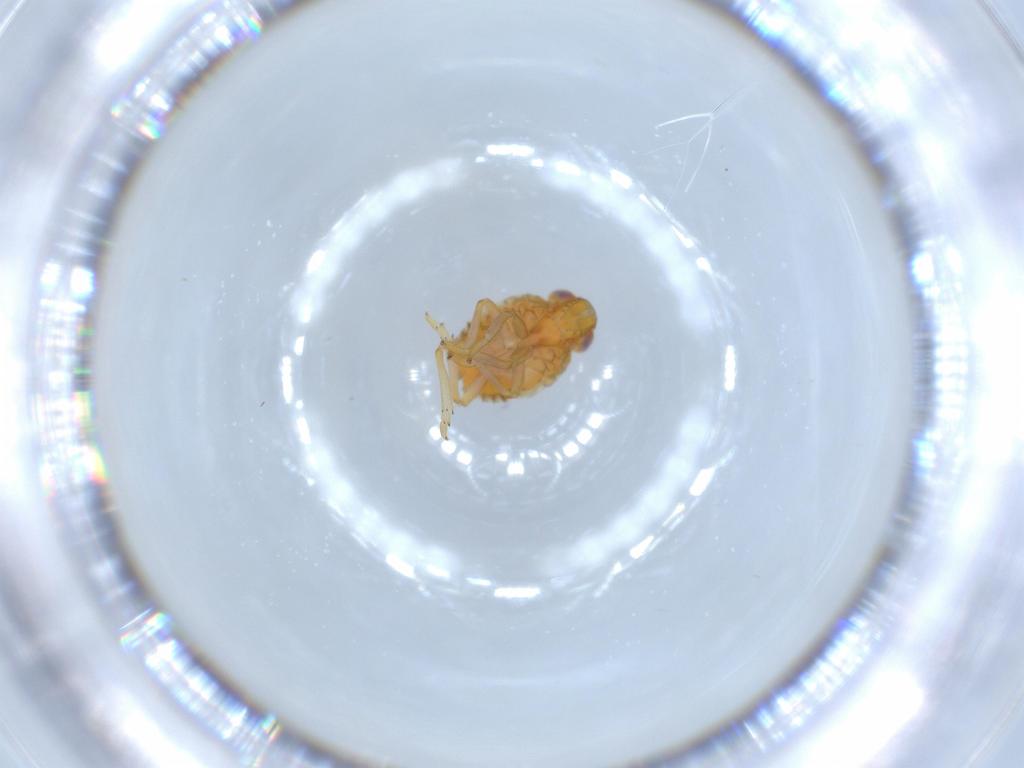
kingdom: Animalia
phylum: Arthropoda
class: Insecta
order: Hemiptera
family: Issidae
